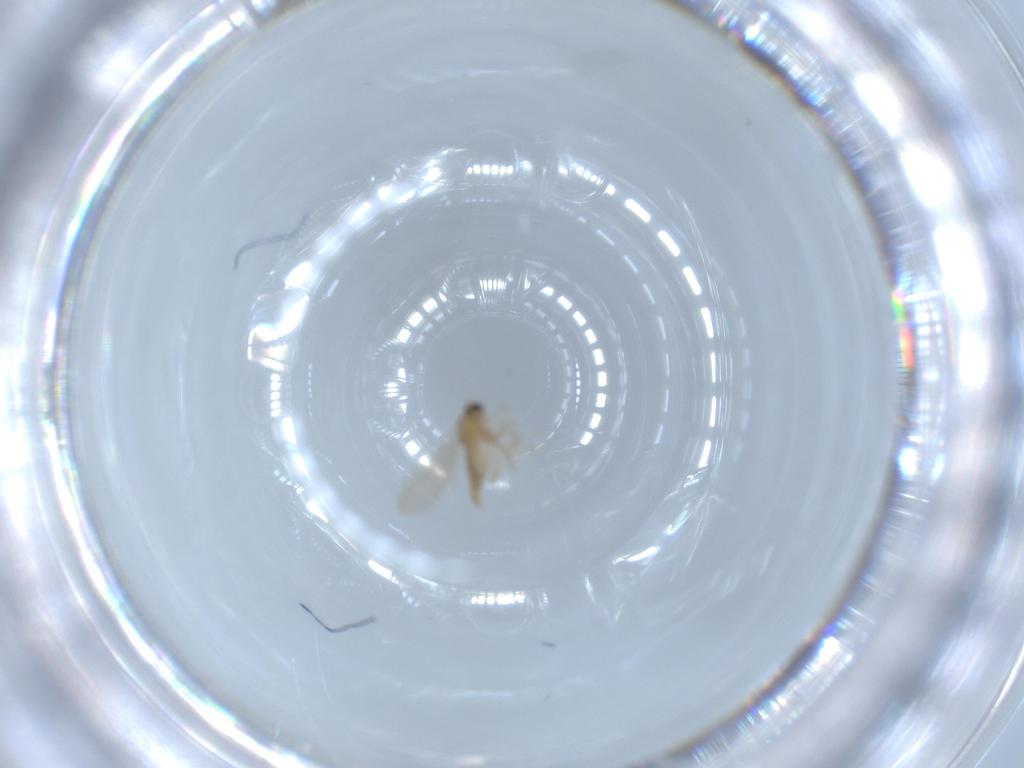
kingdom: Animalia
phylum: Arthropoda
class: Insecta
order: Diptera
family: Cecidomyiidae
